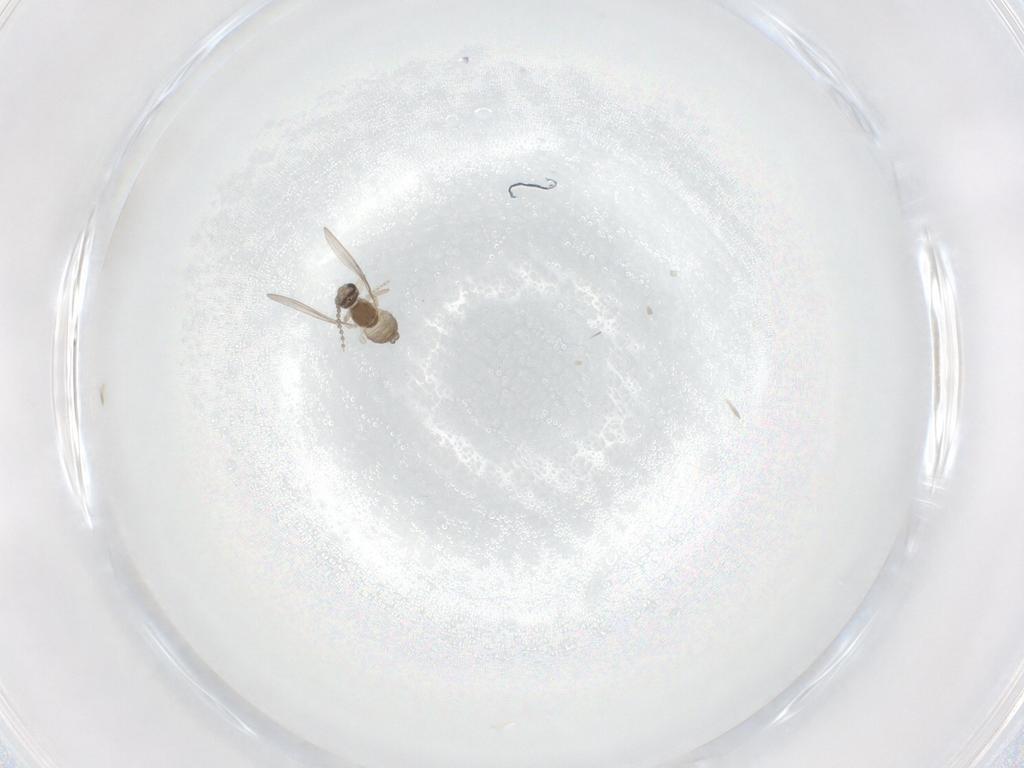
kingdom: Animalia
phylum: Arthropoda
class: Insecta
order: Diptera
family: Cecidomyiidae
